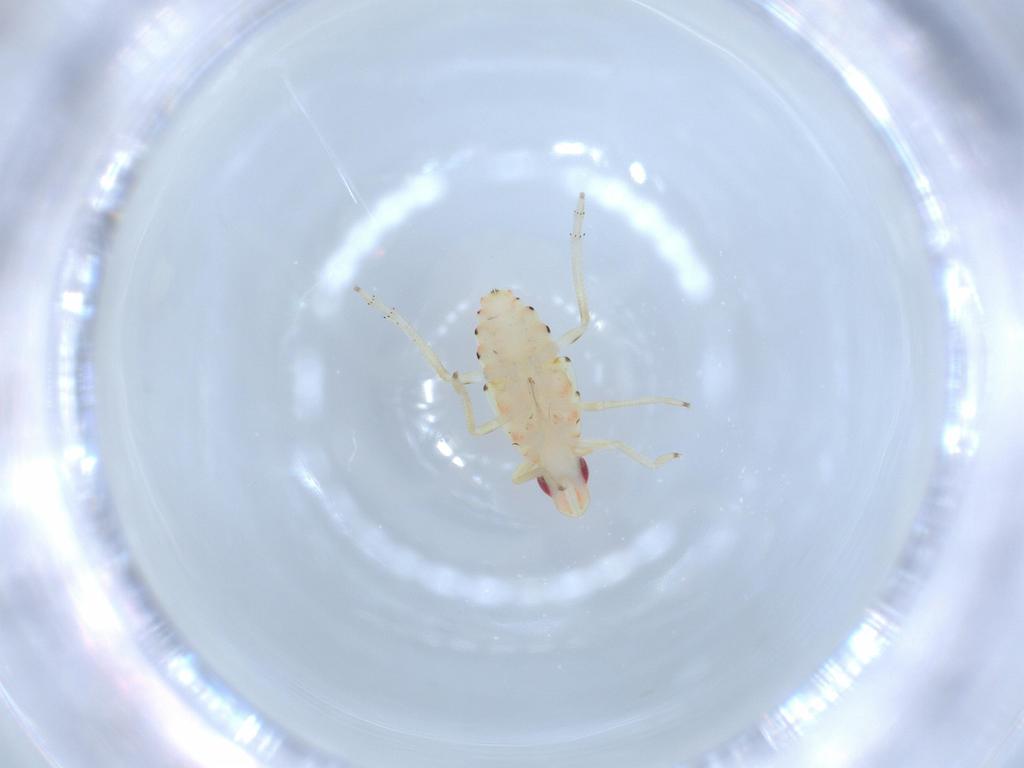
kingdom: Animalia
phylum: Arthropoda
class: Insecta
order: Hemiptera
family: Tropiduchidae
